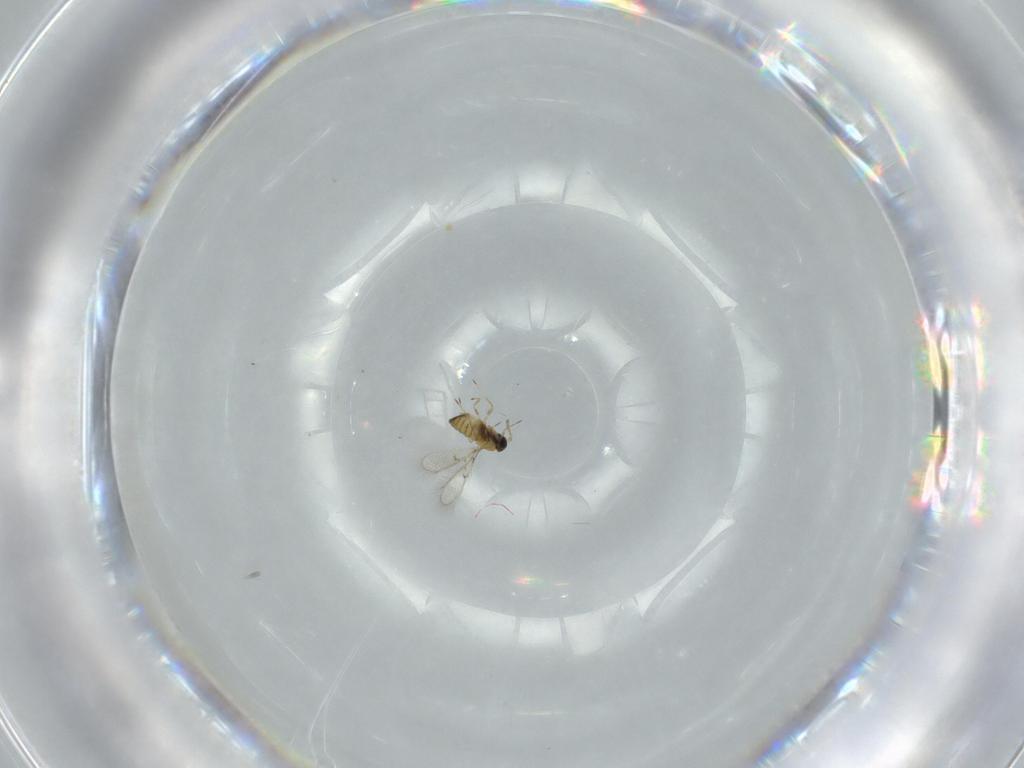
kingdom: Animalia
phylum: Arthropoda
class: Insecta
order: Hymenoptera
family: Trichogrammatidae
